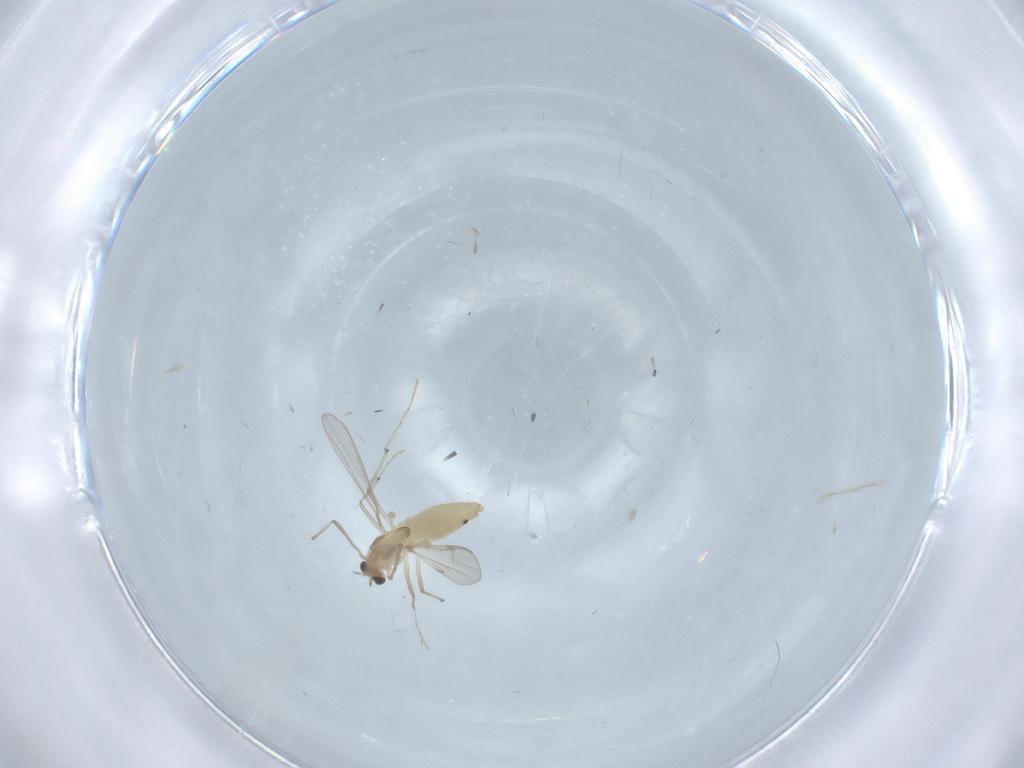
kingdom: Animalia
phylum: Arthropoda
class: Insecta
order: Diptera
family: Chironomidae
